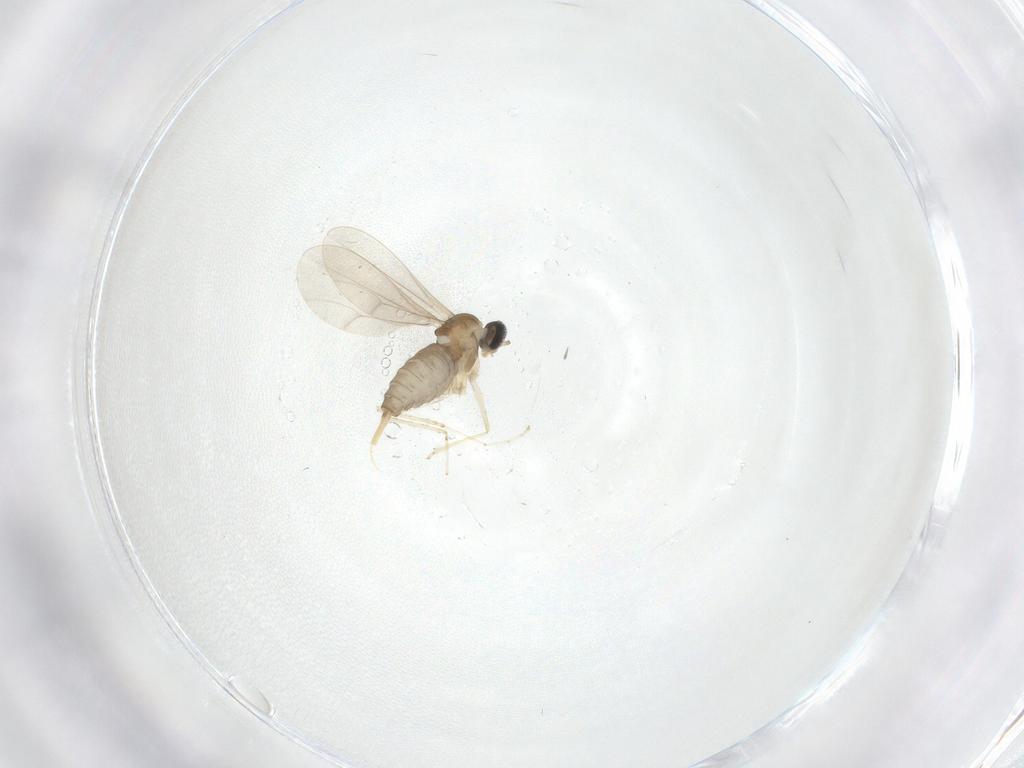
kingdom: Animalia
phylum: Arthropoda
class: Insecta
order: Diptera
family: Cecidomyiidae
